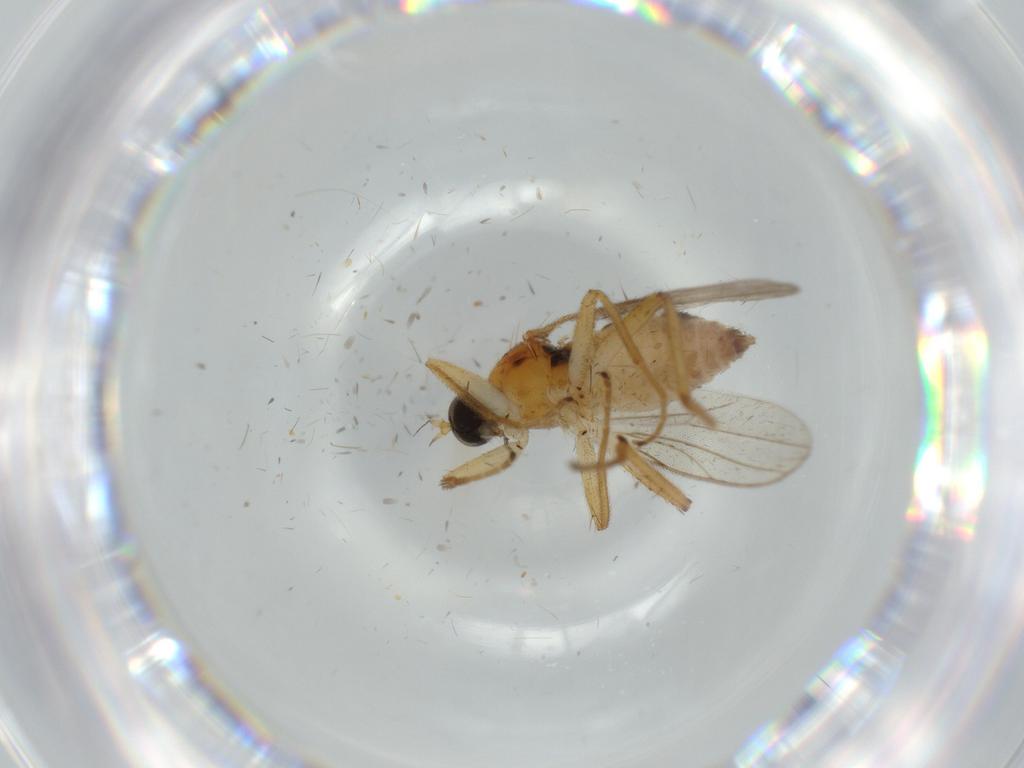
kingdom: Animalia
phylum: Arthropoda
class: Insecta
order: Diptera
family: Hybotidae
